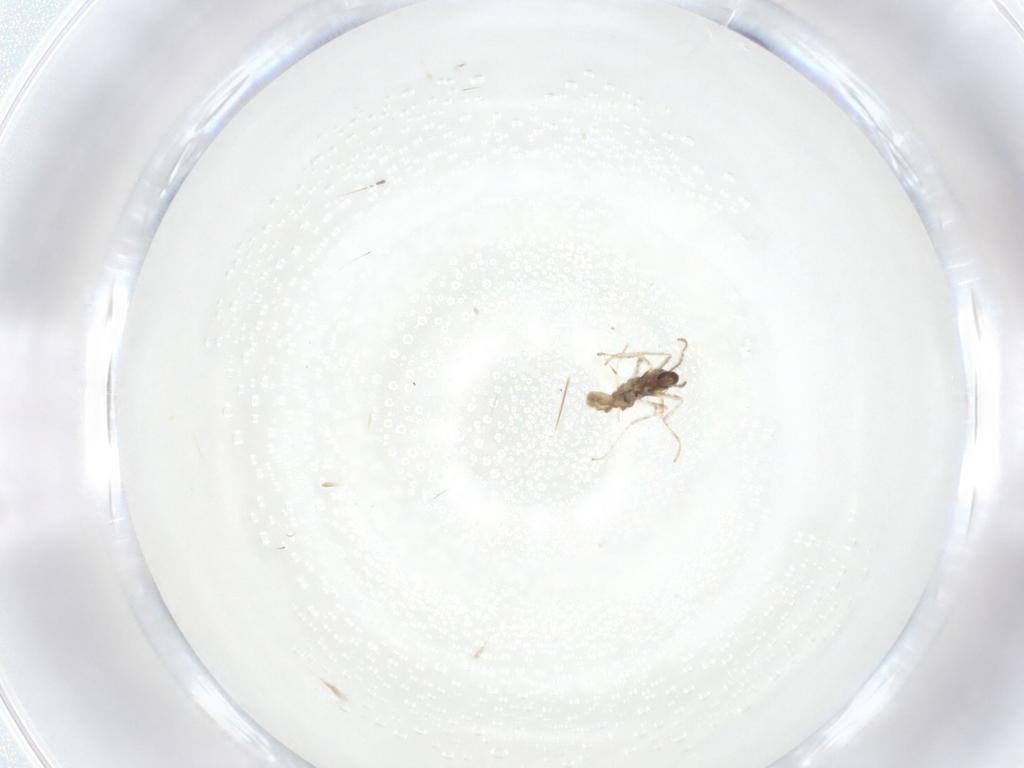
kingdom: Animalia
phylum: Arthropoda
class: Insecta
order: Diptera
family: Cecidomyiidae
